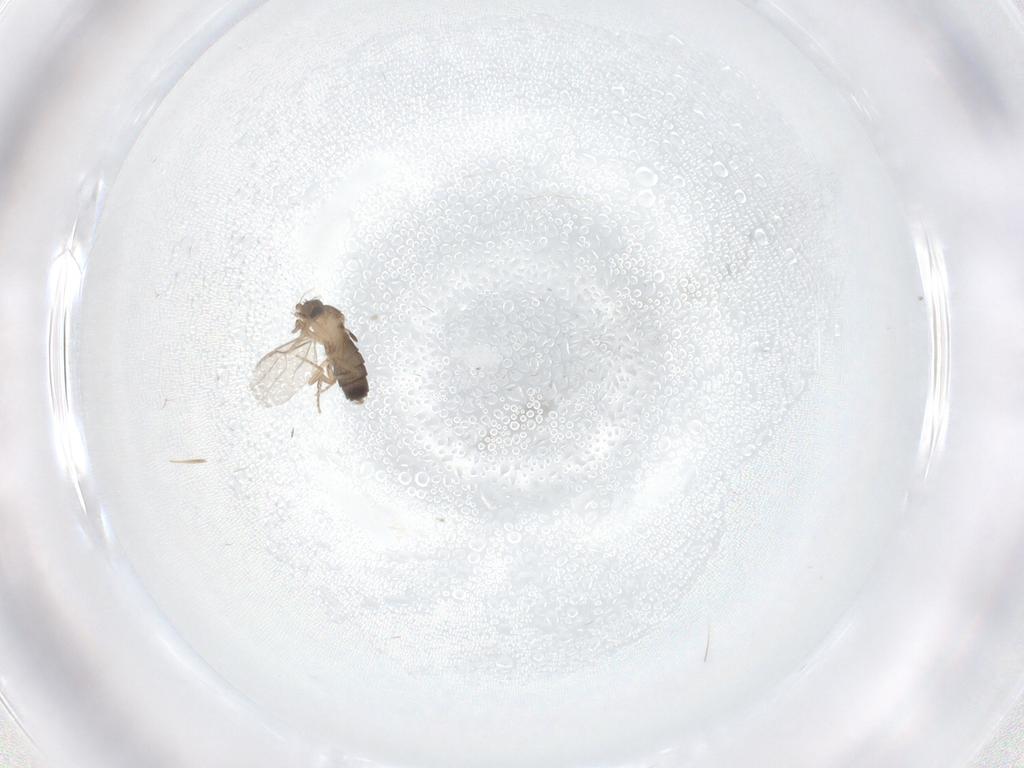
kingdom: Animalia
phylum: Arthropoda
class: Insecta
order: Diptera
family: Phoridae
